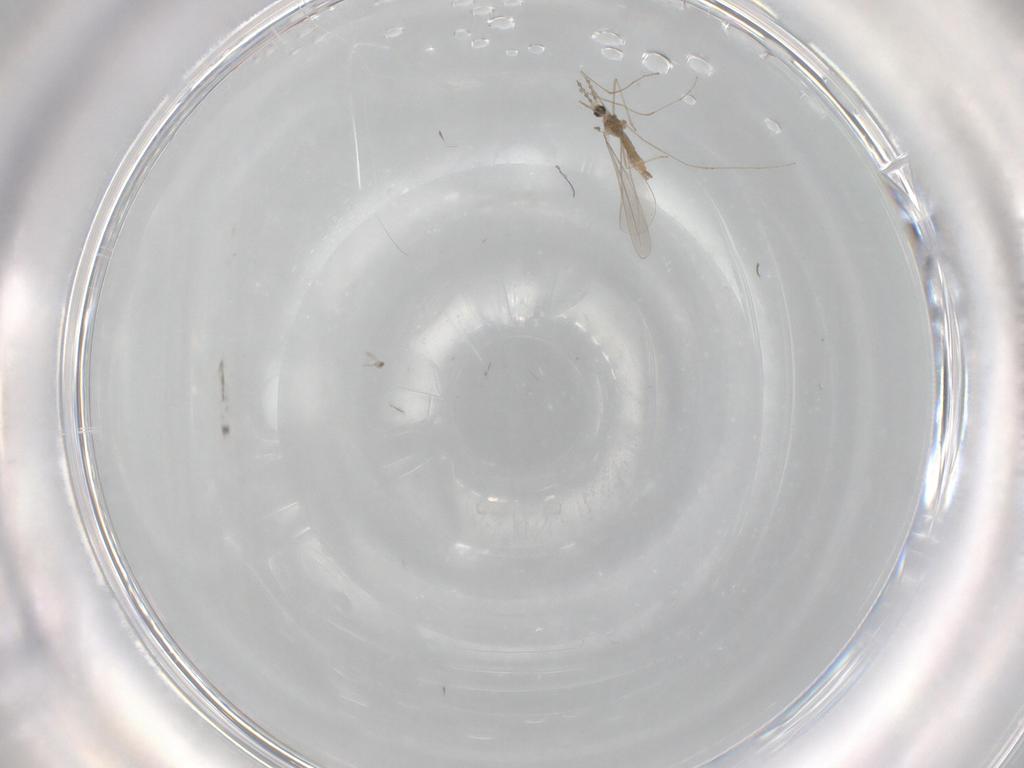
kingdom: Animalia
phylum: Arthropoda
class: Insecta
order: Diptera
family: Cecidomyiidae
